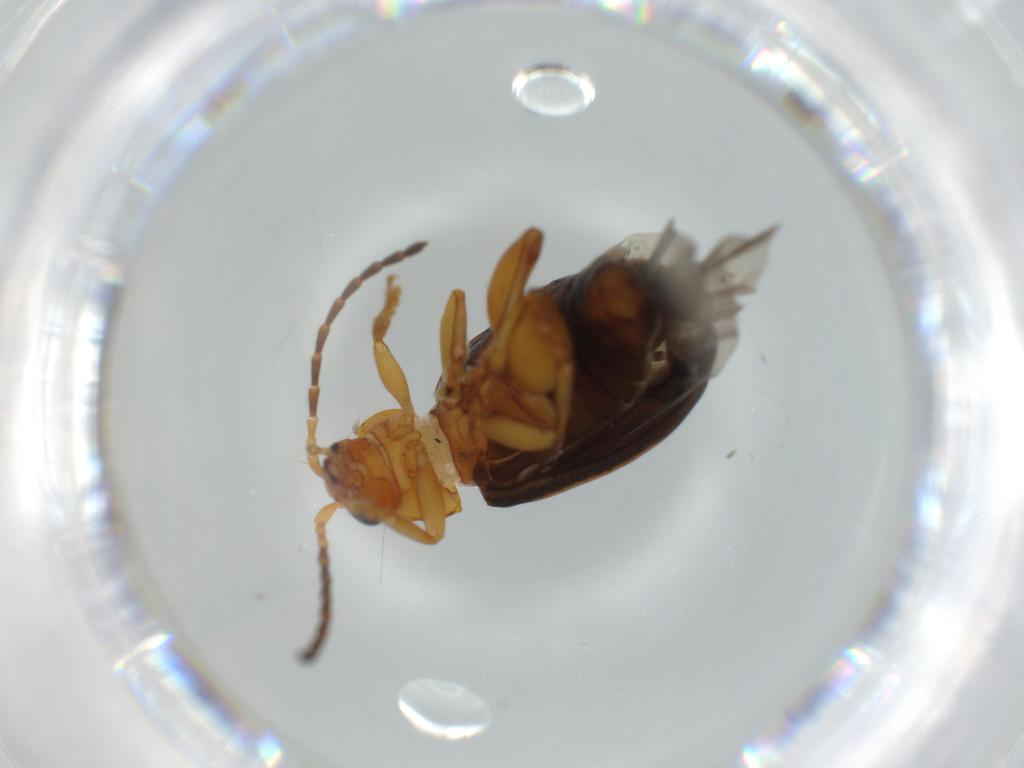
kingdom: Animalia
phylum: Arthropoda
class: Insecta
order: Coleoptera
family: Chrysomelidae
